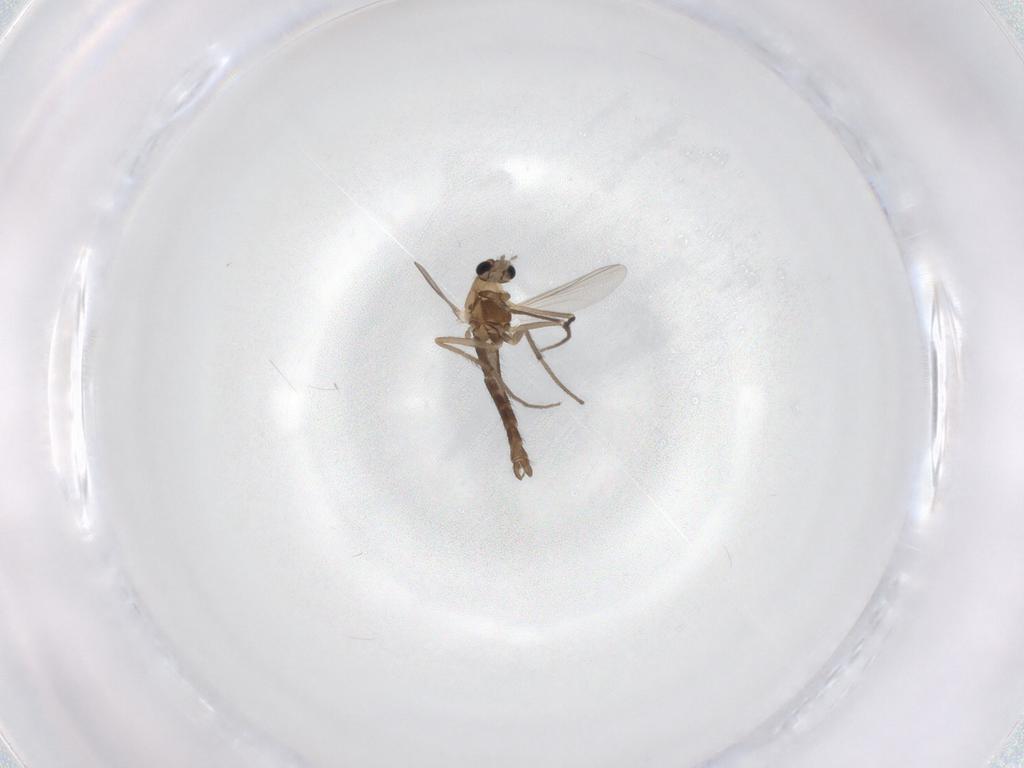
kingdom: Animalia
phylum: Arthropoda
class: Insecta
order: Diptera
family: Chironomidae
